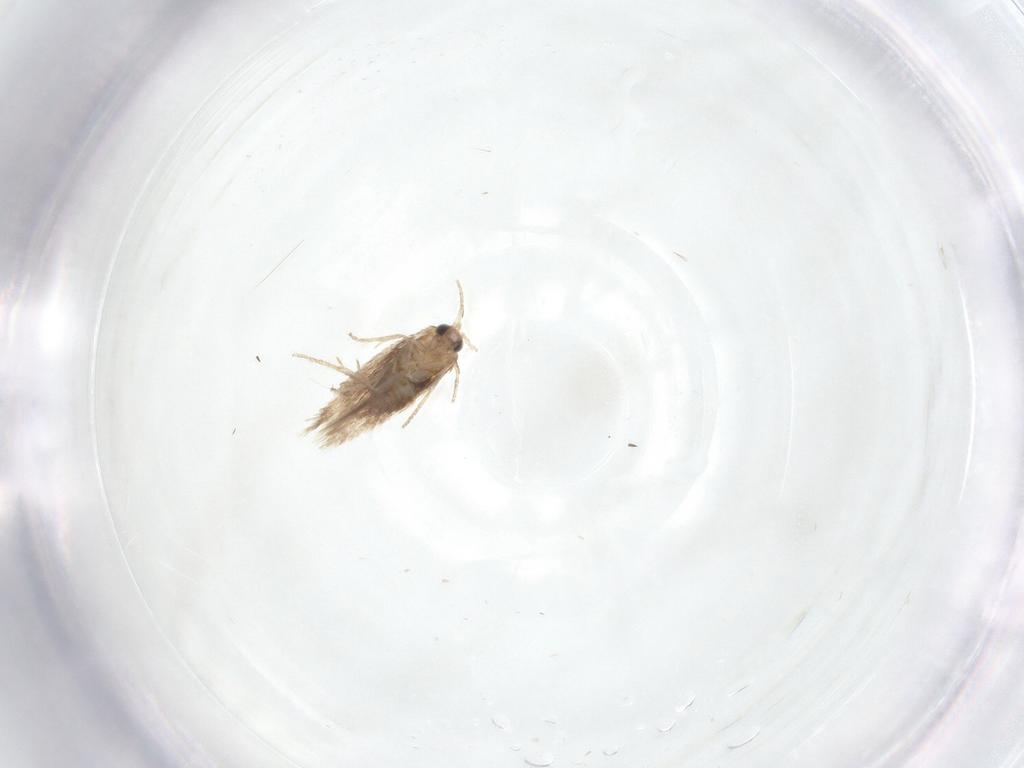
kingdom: Animalia
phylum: Arthropoda
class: Insecta
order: Lepidoptera
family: Nepticulidae
